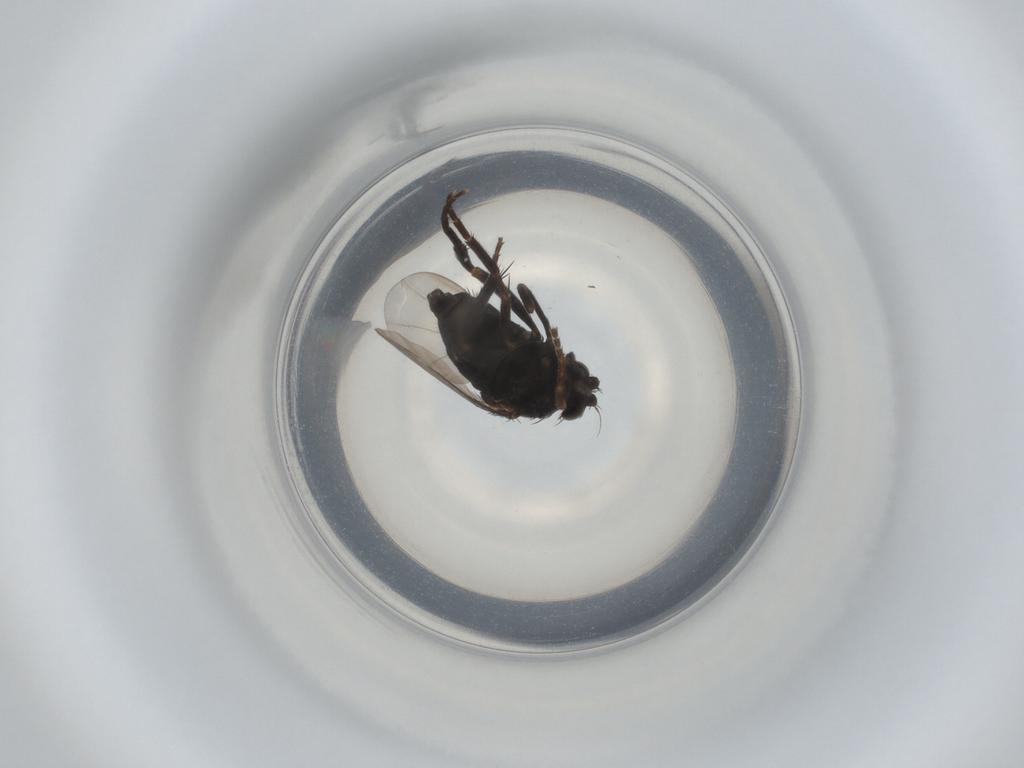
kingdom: Animalia
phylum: Arthropoda
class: Insecta
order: Diptera
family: Phoridae
